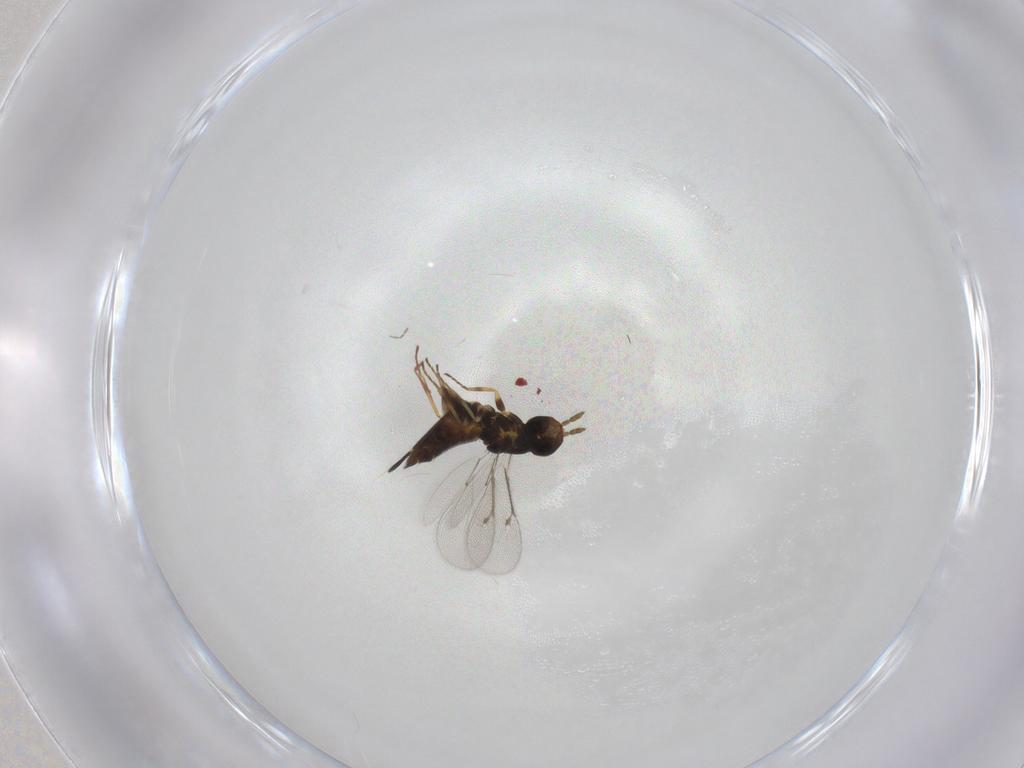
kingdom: Animalia
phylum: Arthropoda
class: Insecta
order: Hymenoptera
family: Eulophidae
